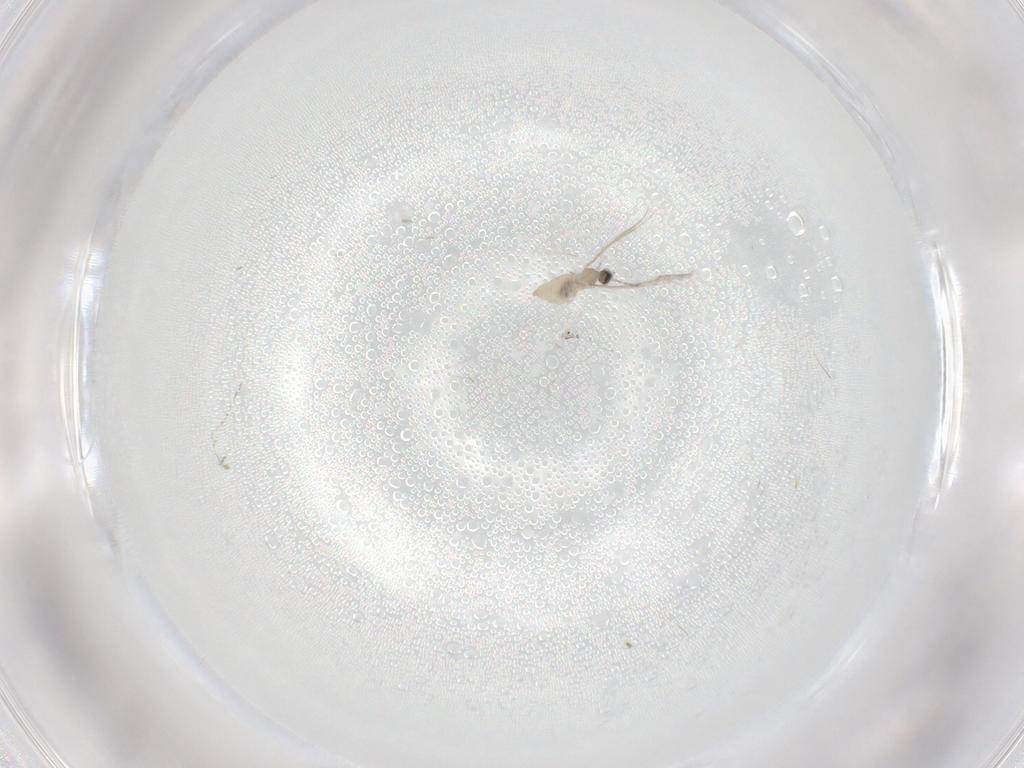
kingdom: Animalia
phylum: Arthropoda
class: Insecta
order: Diptera
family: Cecidomyiidae
